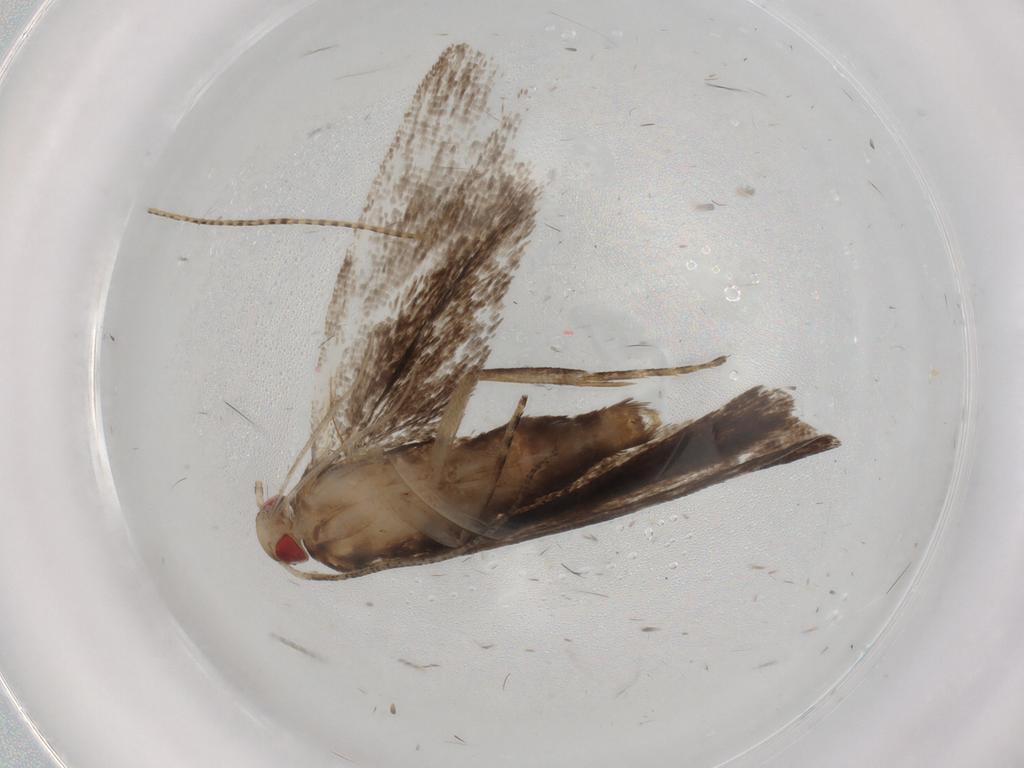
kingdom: Animalia
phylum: Arthropoda
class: Insecta
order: Lepidoptera
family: Gelechiidae
